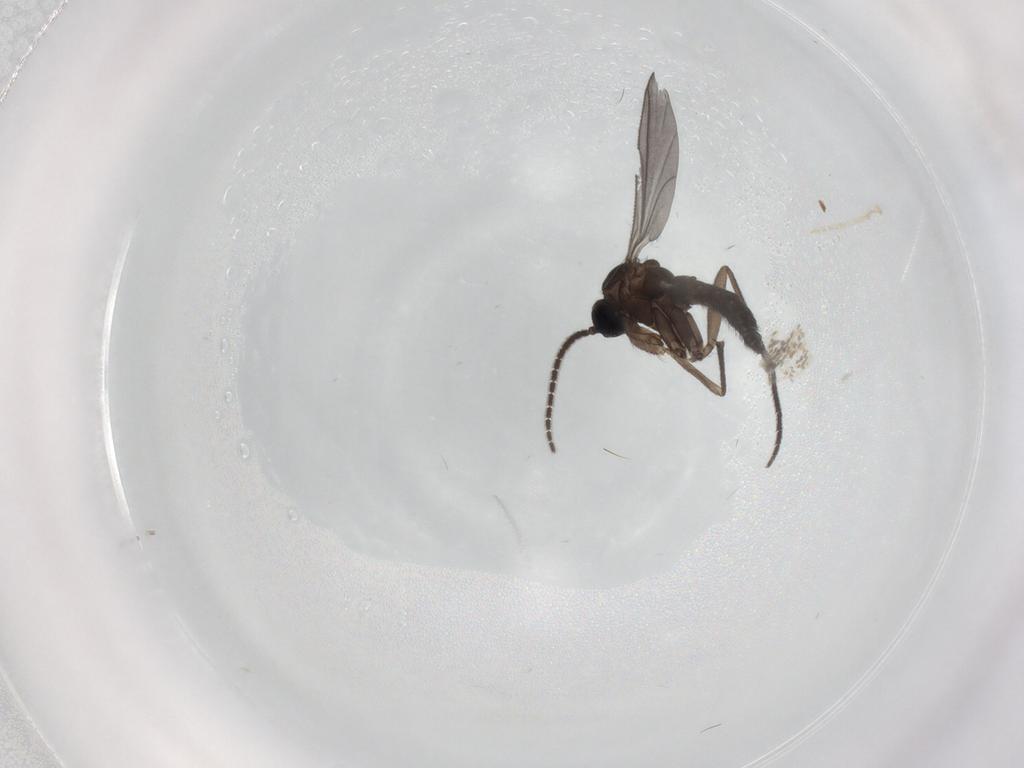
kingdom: Animalia
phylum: Arthropoda
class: Insecta
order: Diptera
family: Sciaridae
